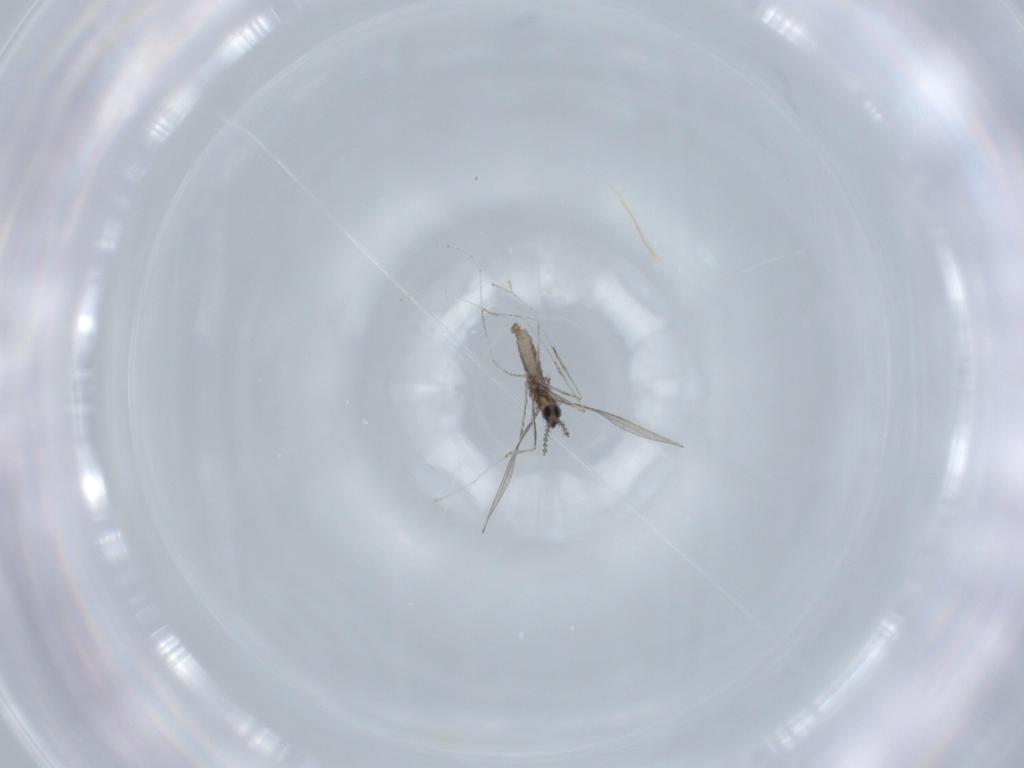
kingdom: Animalia
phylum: Arthropoda
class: Insecta
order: Diptera
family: Cecidomyiidae
